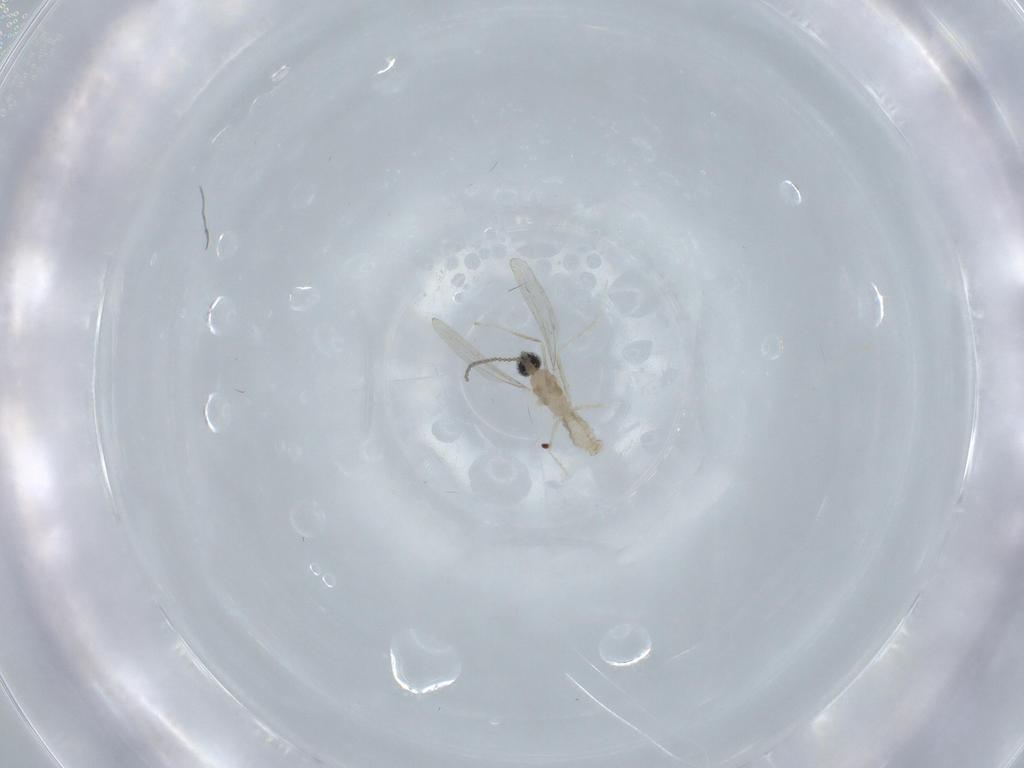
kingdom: Animalia
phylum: Arthropoda
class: Insecta
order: Diptera
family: Cecidomyiidae
